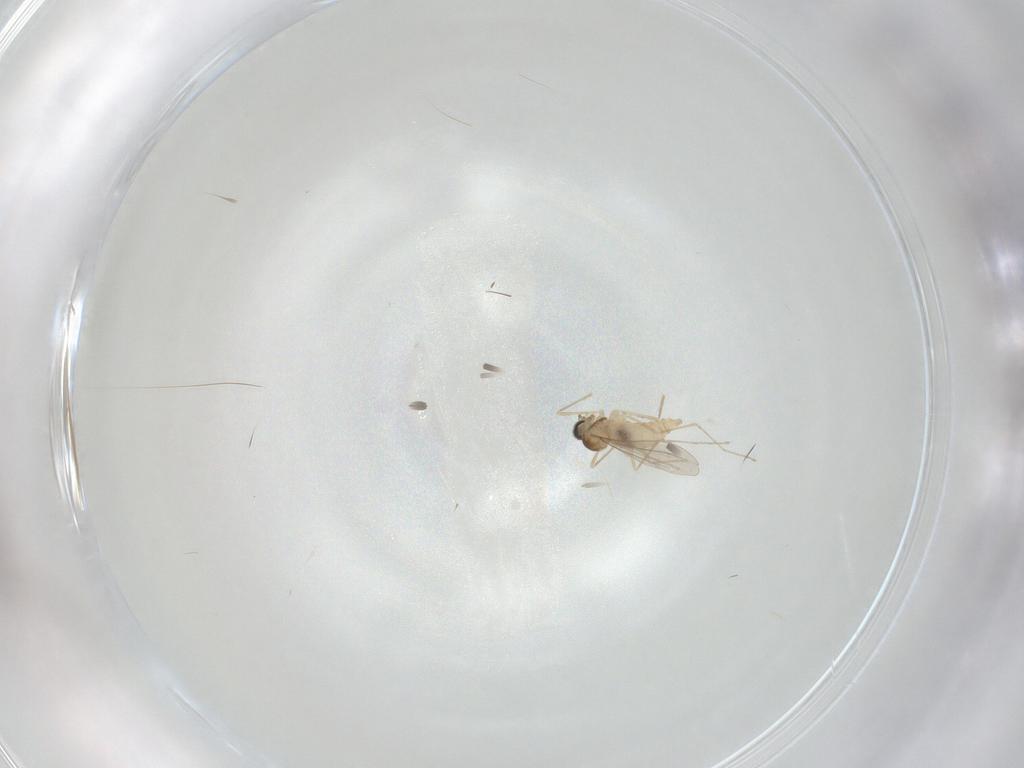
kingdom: Animalia
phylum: Arthropoda
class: Insecta
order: Diptera
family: Cecidomyiidae
